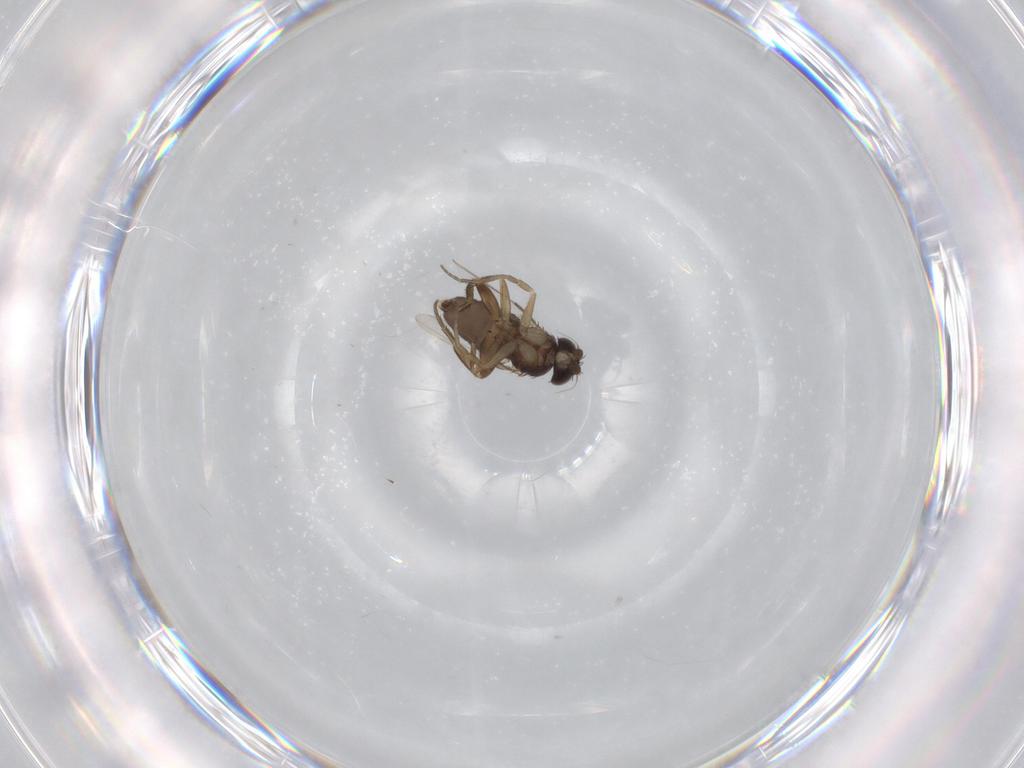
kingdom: Animalia
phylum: Arthropoda
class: Insecta
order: Diptera
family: Phoridae
